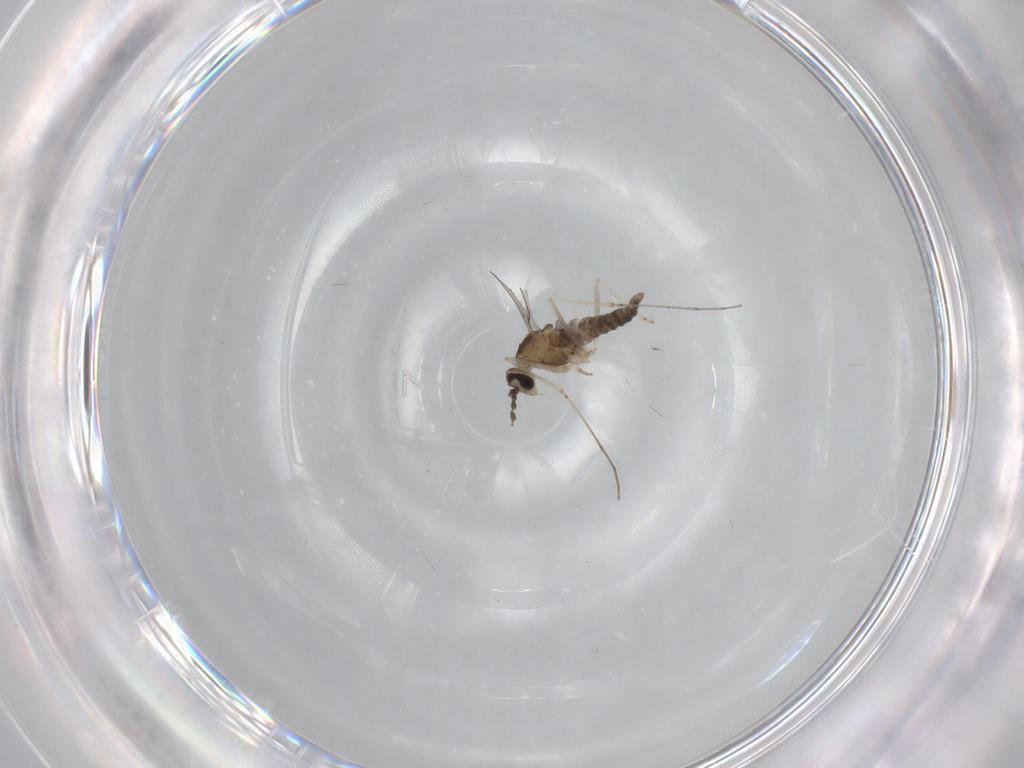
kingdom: Animalia
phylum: Arthropoda
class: Insecta
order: Diptera
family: Cecidomyiidae
